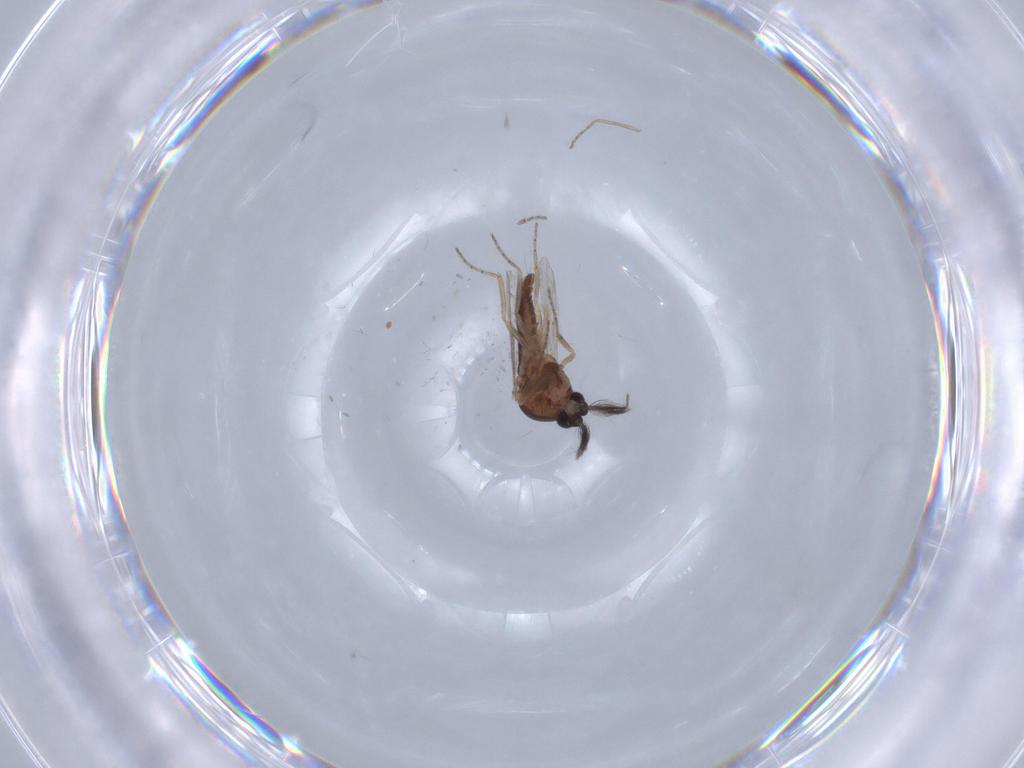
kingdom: Animalia
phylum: Arthropoda
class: Insecta
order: Diptera
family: Ceratopogonidae
